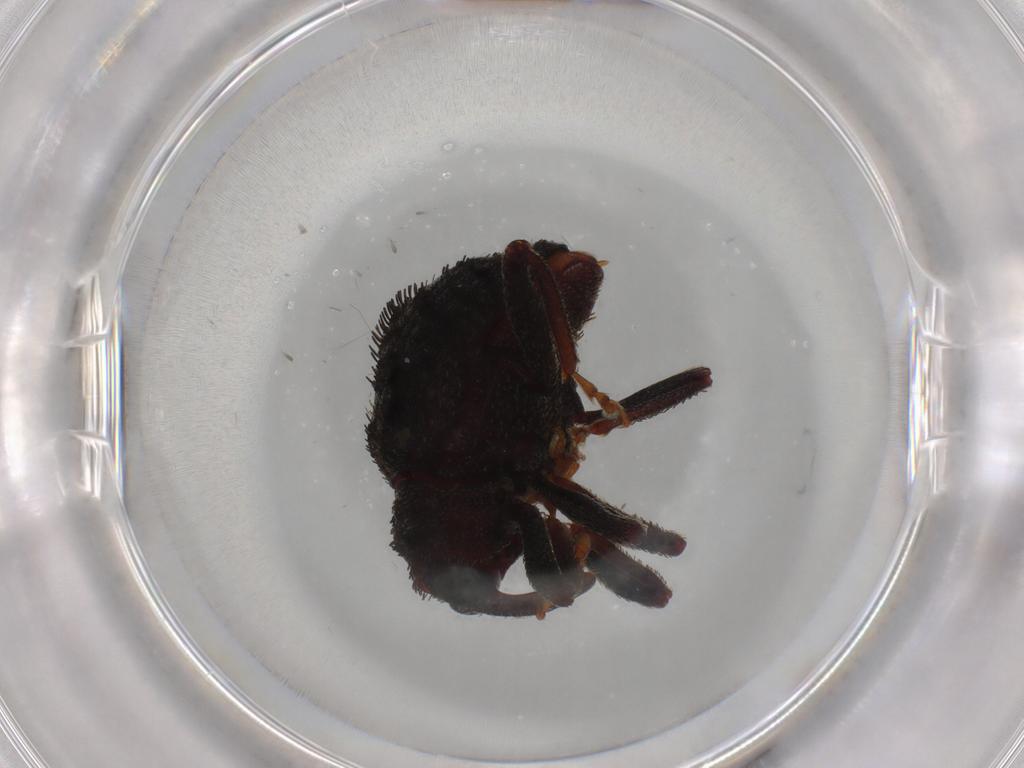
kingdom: Animalia
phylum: Arthropoda
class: Insecta
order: Coleoptera
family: Curculionidae
